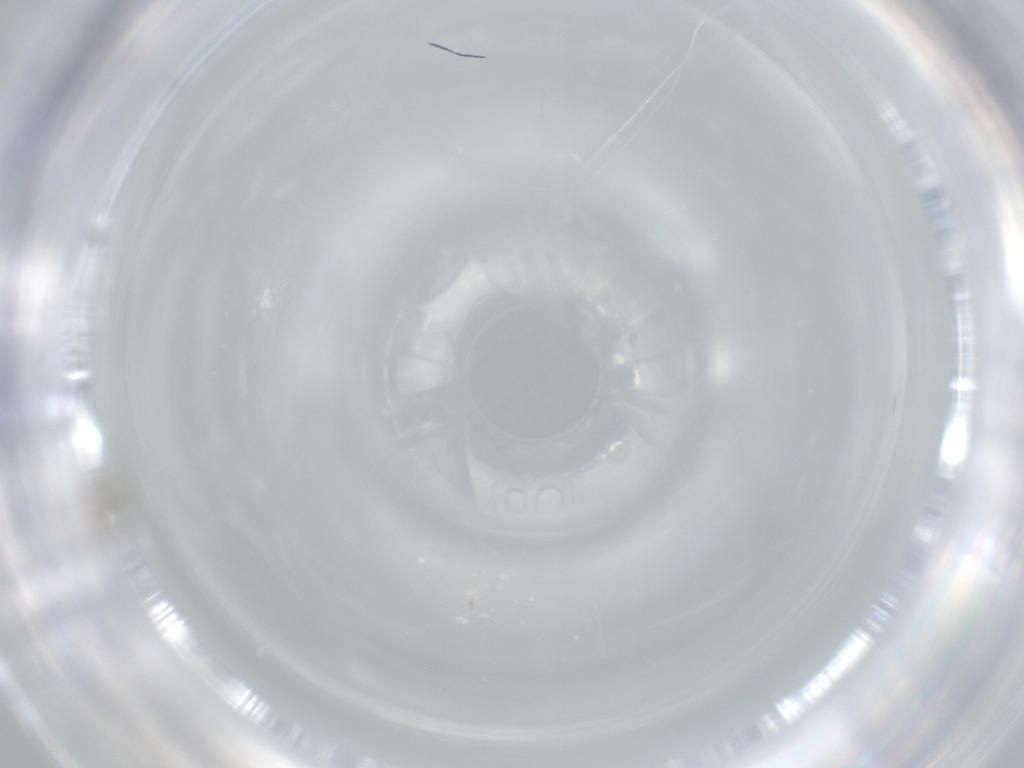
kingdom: Animalia
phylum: Arthropoda
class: Insecta
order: Diptera
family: Cecidomyiidae
